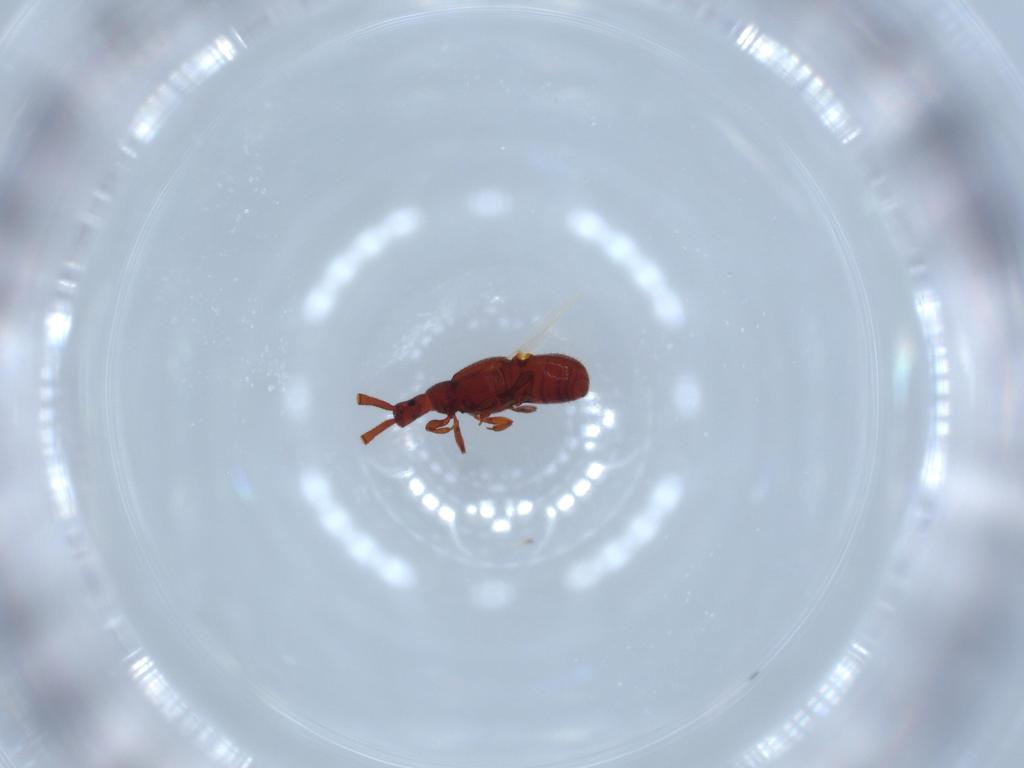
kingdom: Animalia
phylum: Arthropoda
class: Insecta
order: Coleoptera
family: Staphylinidae
